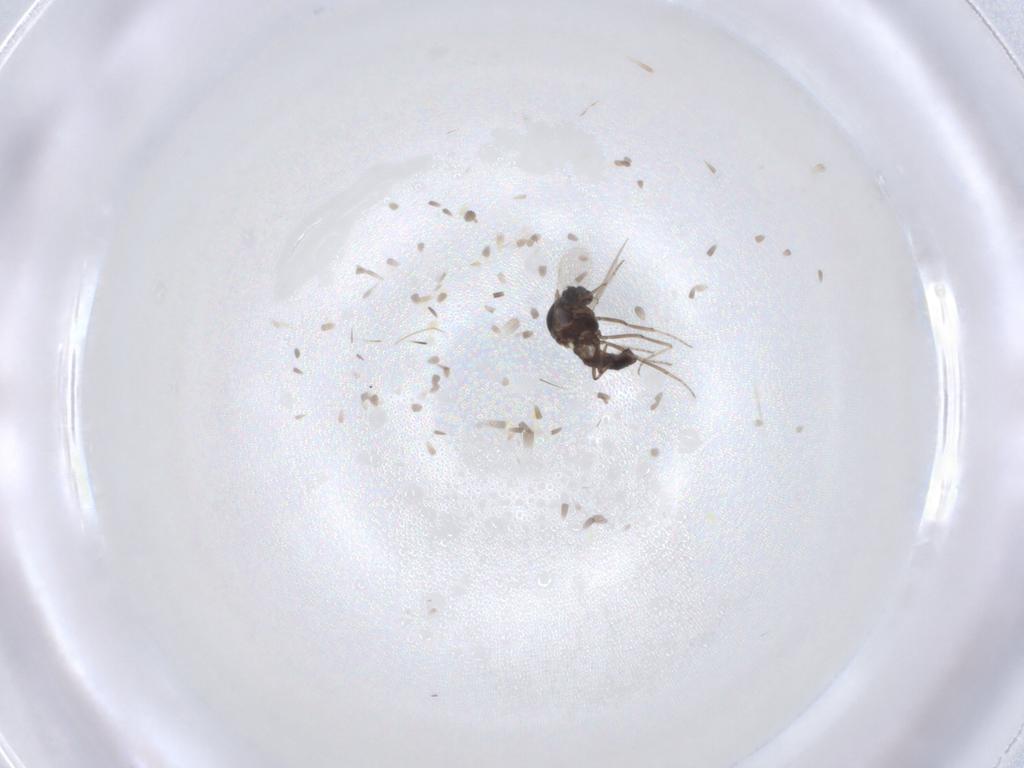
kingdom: Animalia
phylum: Arthropoda
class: Insecta
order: Diptera
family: Ceratopogonidae
